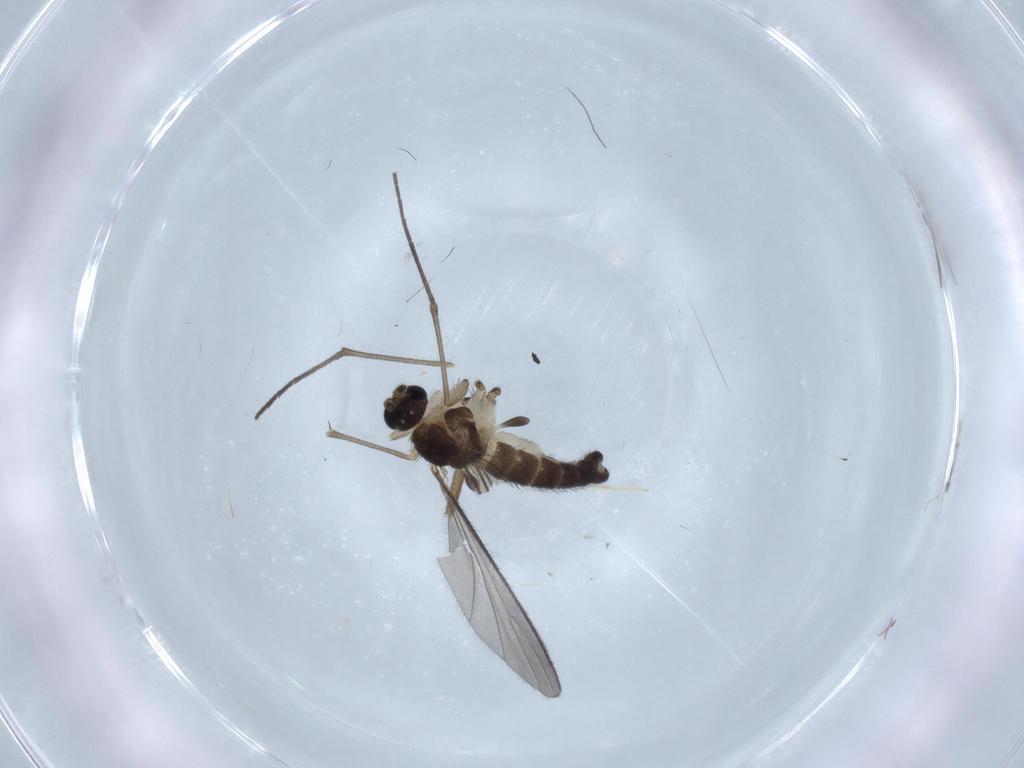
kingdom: Animalia
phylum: Arthropoda
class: Insecta
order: Diptera
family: Sciaridae
